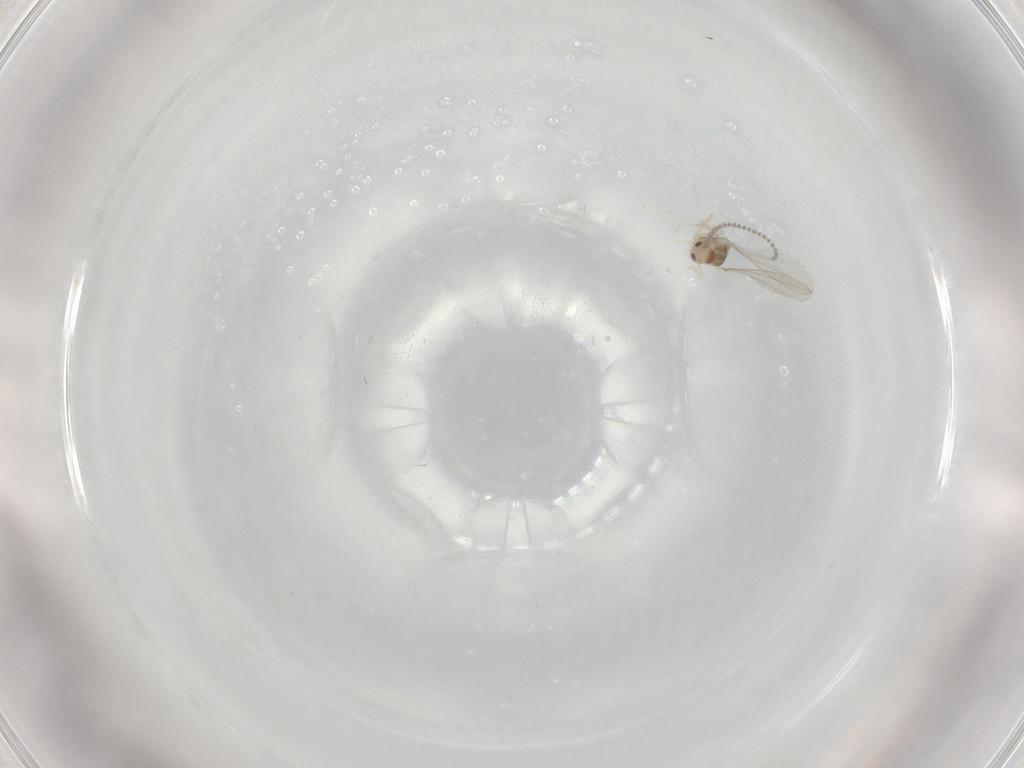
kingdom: Animalia
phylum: Arthropoda
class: Insecta
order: Diptera
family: Cecidomyiidae
